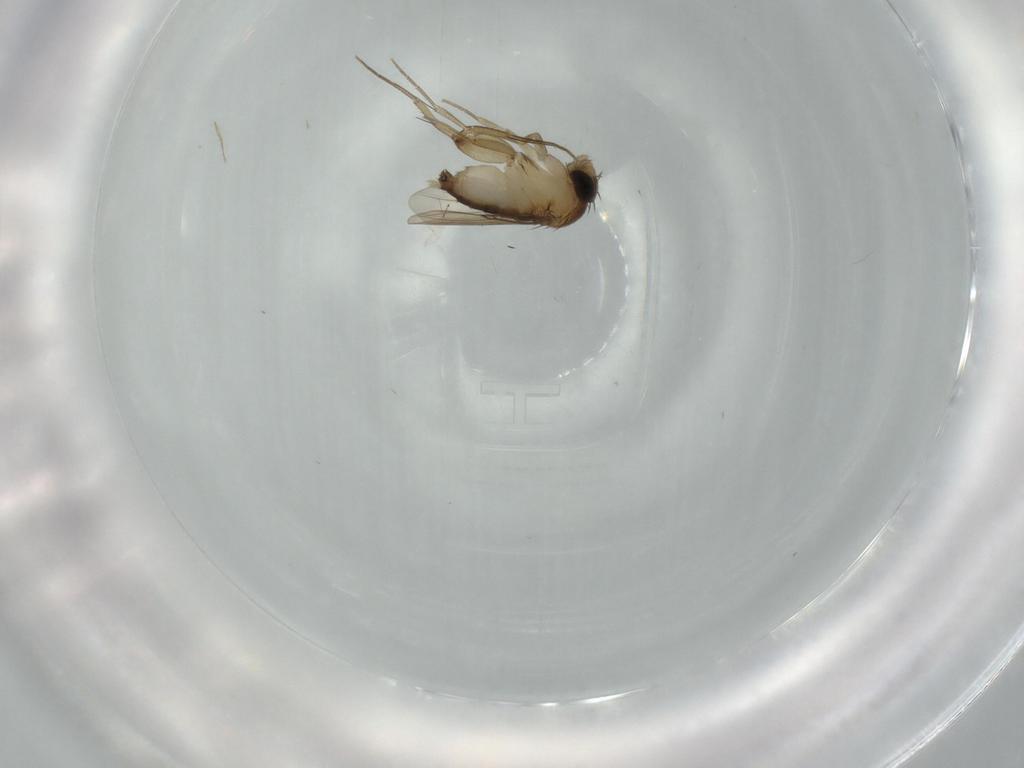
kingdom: Animalia
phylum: Arthropoda
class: Insecta
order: Diptera
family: Phoridae
